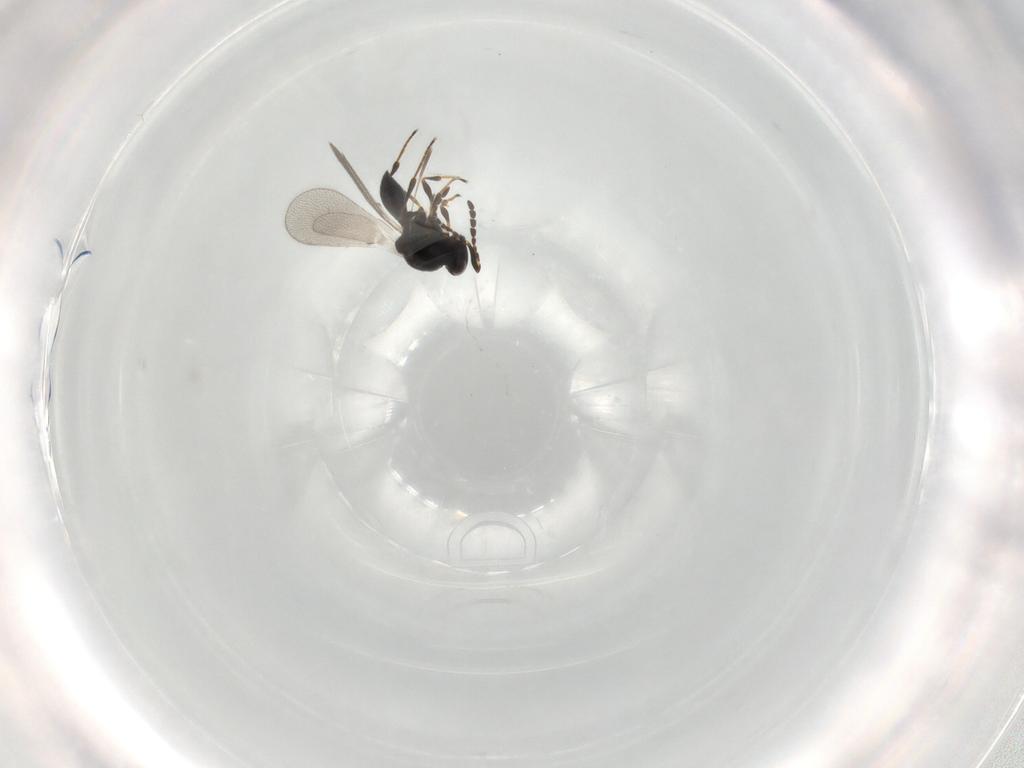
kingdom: Animalia
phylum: Arthropoda
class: Insecta
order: Hymenoptera
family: Platygastridae
